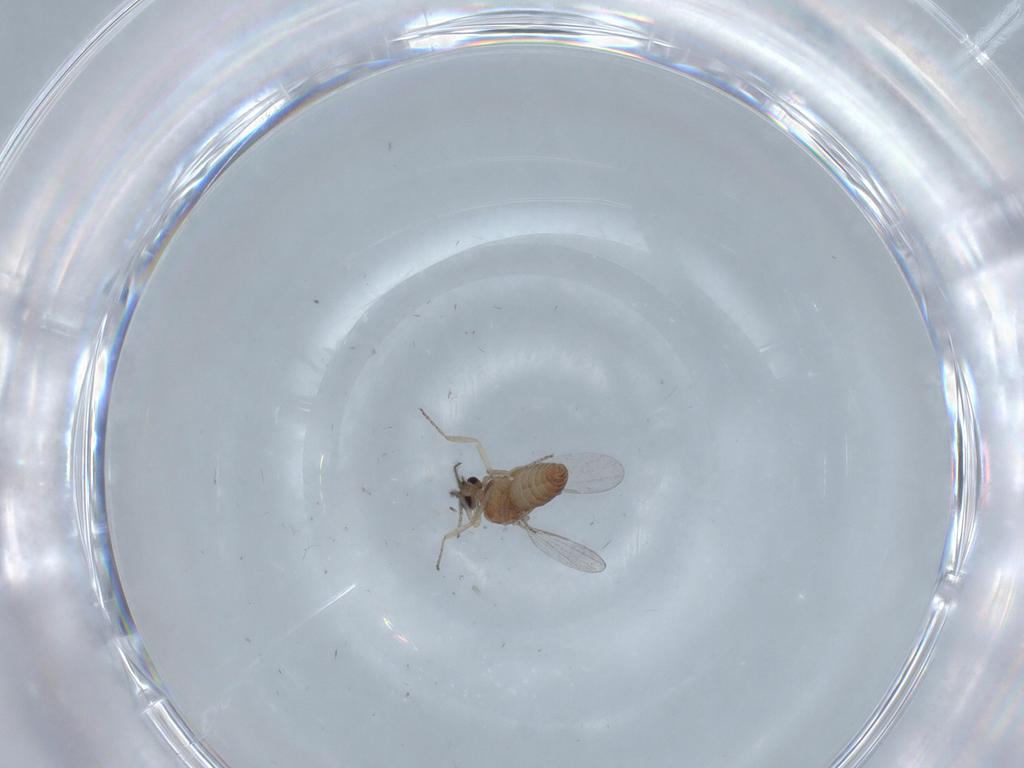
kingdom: Animalia
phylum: Arthropoda
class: Insecta
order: Diptera
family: Ceratopogonidae
